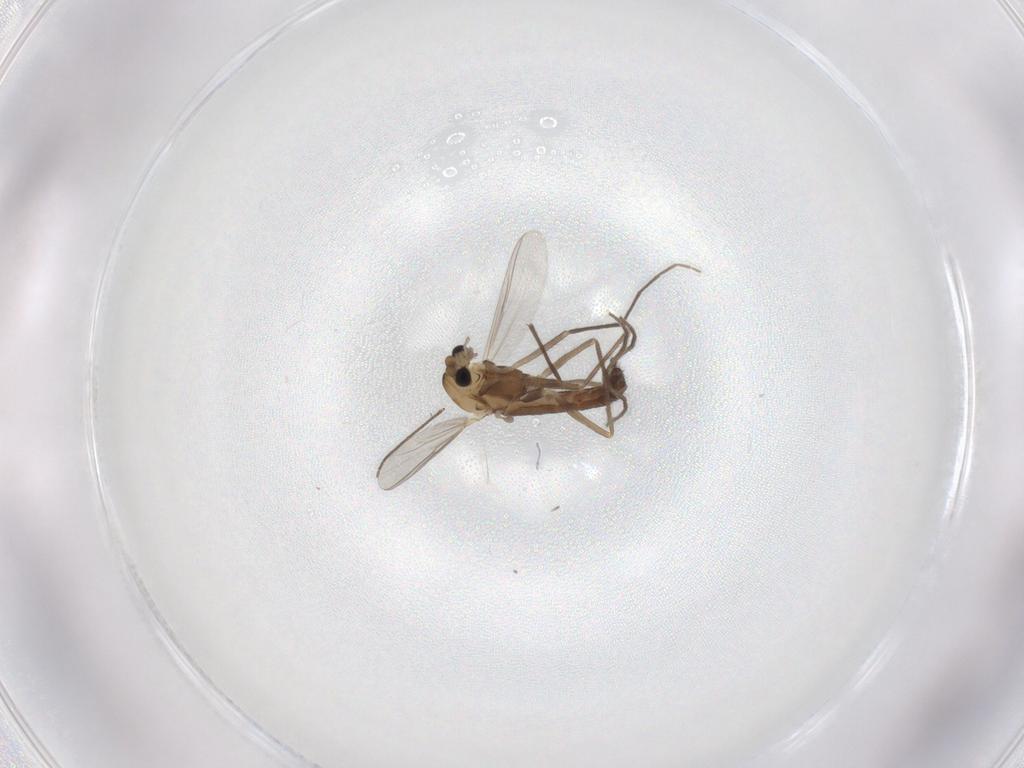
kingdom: Animalia
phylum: Arthropoda
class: Insecta
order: Diptera
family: Chironomidae
